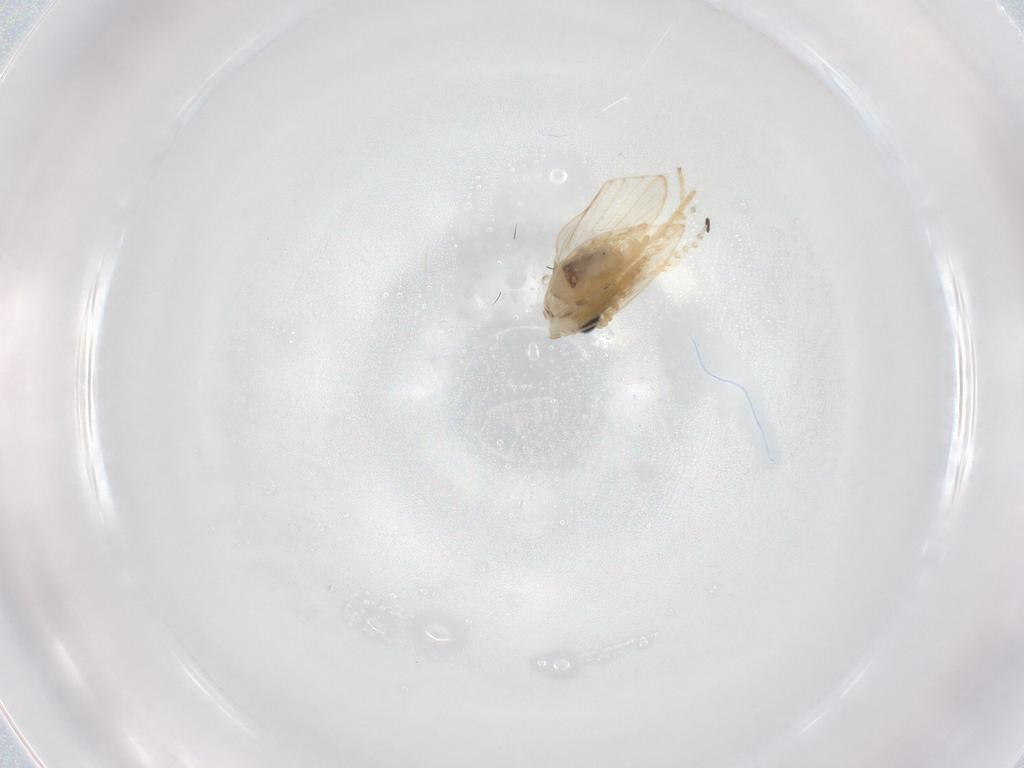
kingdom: Animalia
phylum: Arthropoda
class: Insecta
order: Diptera
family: Psychodidae
